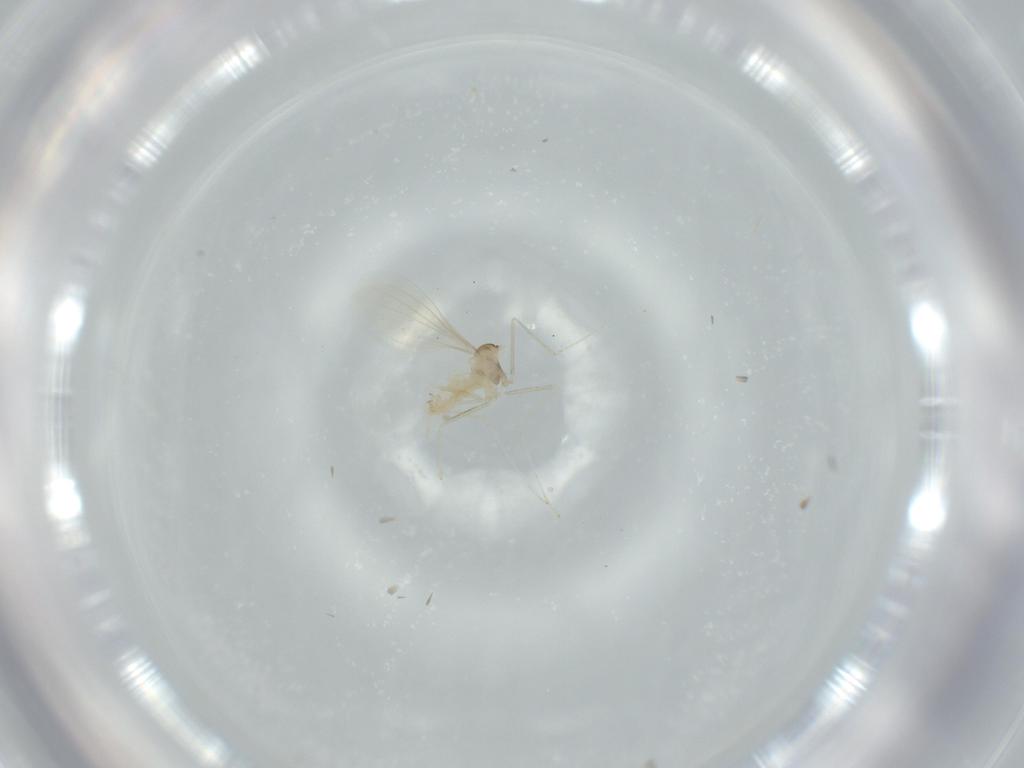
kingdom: Animalia
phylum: Arthropoda
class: Insecta
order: Diptera
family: Cecidomyiidae
